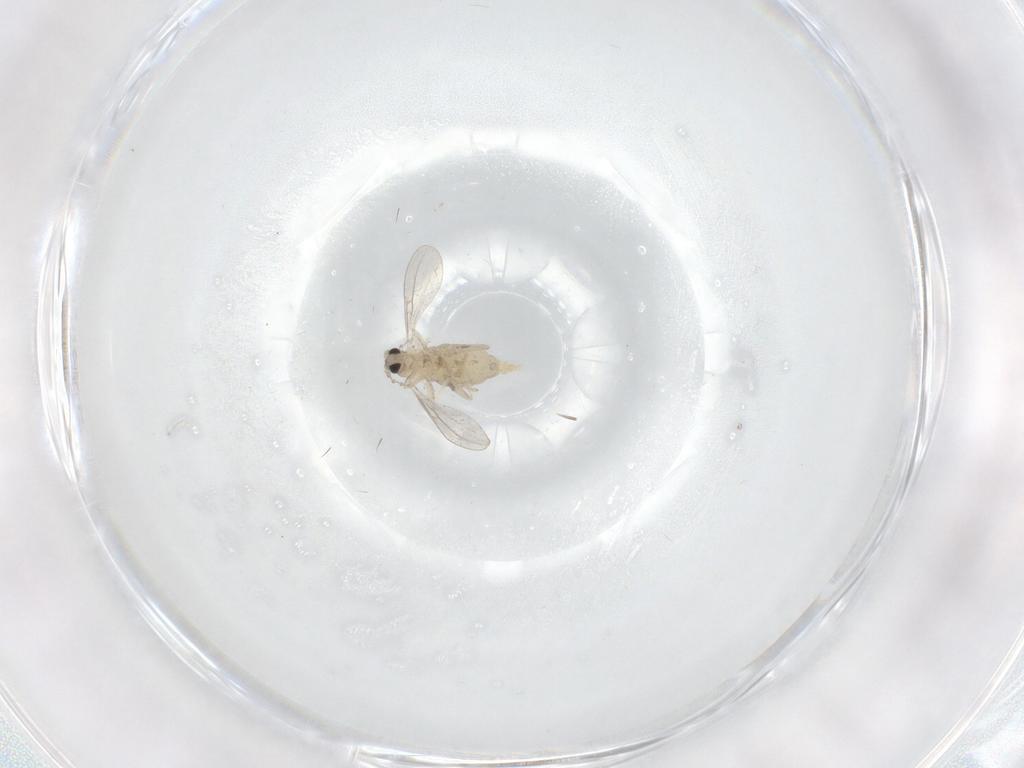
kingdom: Animalia
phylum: Arthropoda
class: Insecta
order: Diptera
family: Cecidomyiidae
